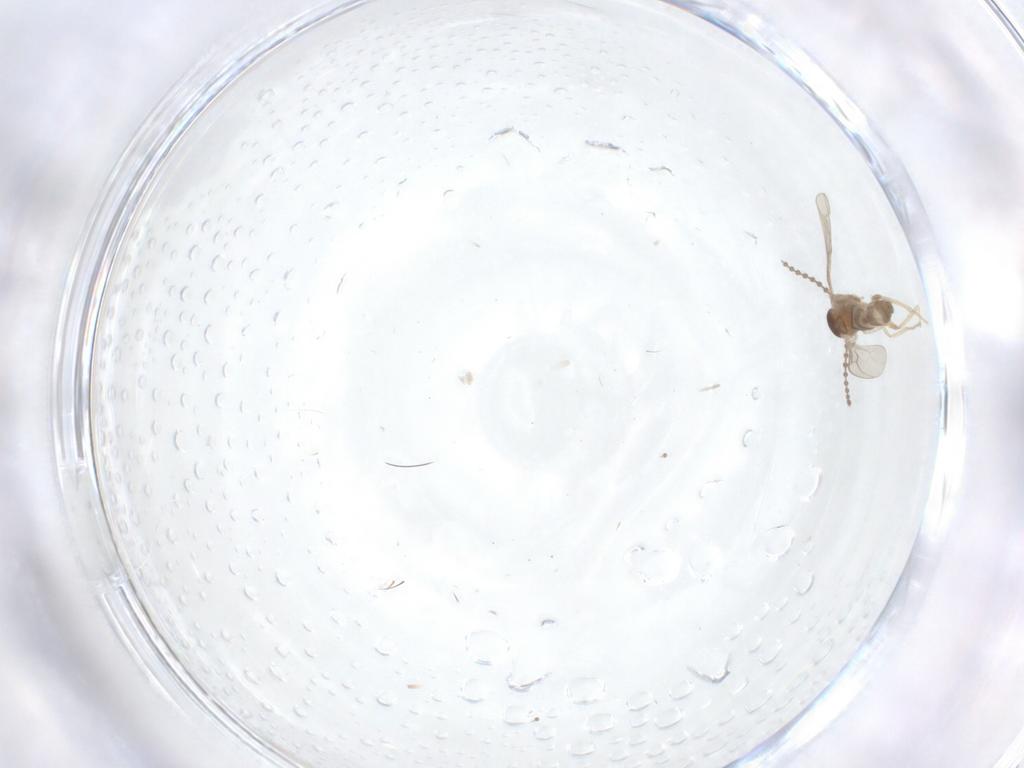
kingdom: Animalia
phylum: Arthropoda
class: Insecta
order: Diptera
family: Cecidomyiidae
